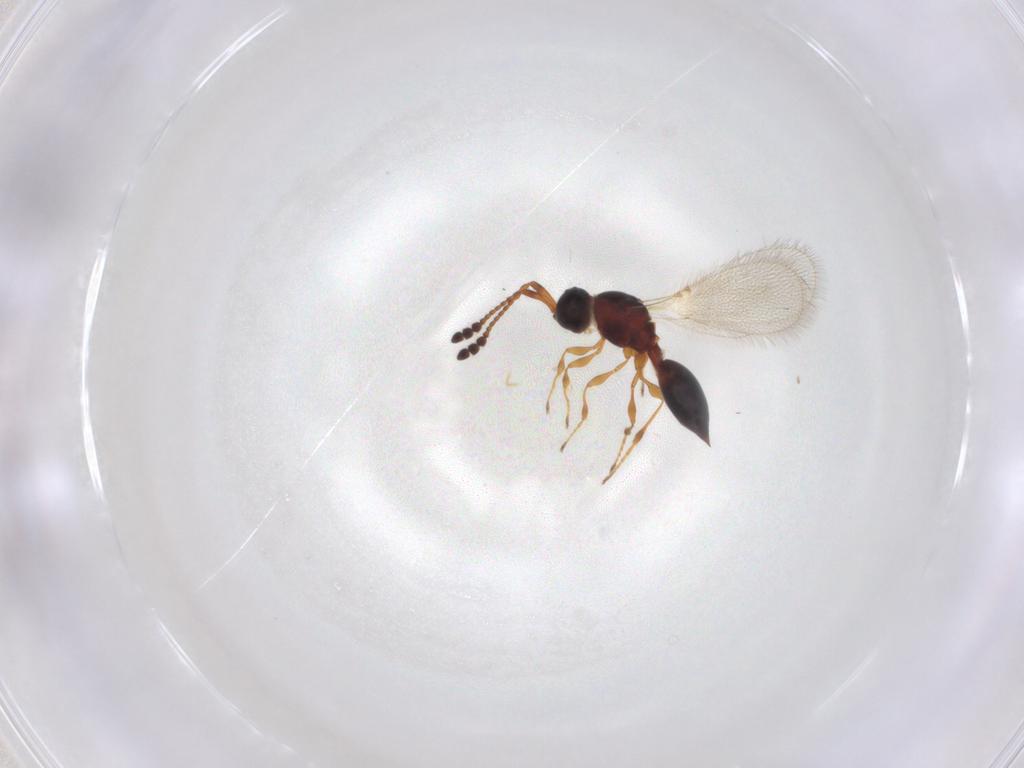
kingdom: Animalia
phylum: Arthropoda
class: Insecta
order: Hymenoptera
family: Diapriidae
